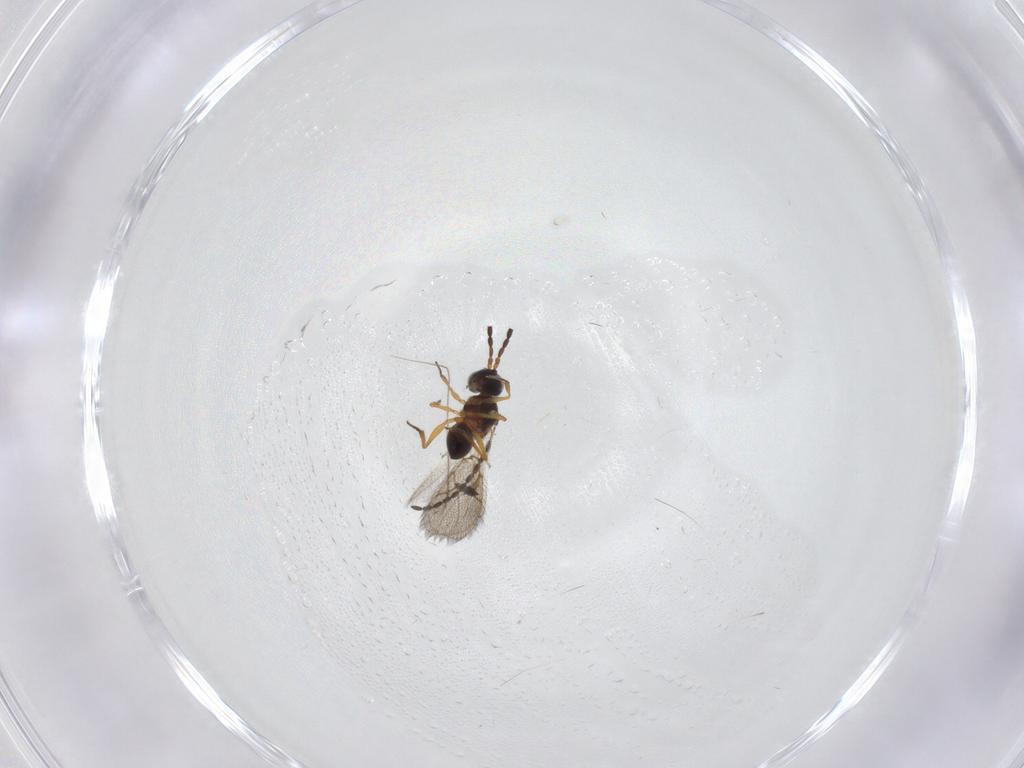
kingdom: Animalia
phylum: Arthropoda
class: Insecta
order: Hymenoptera
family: Figitidae
